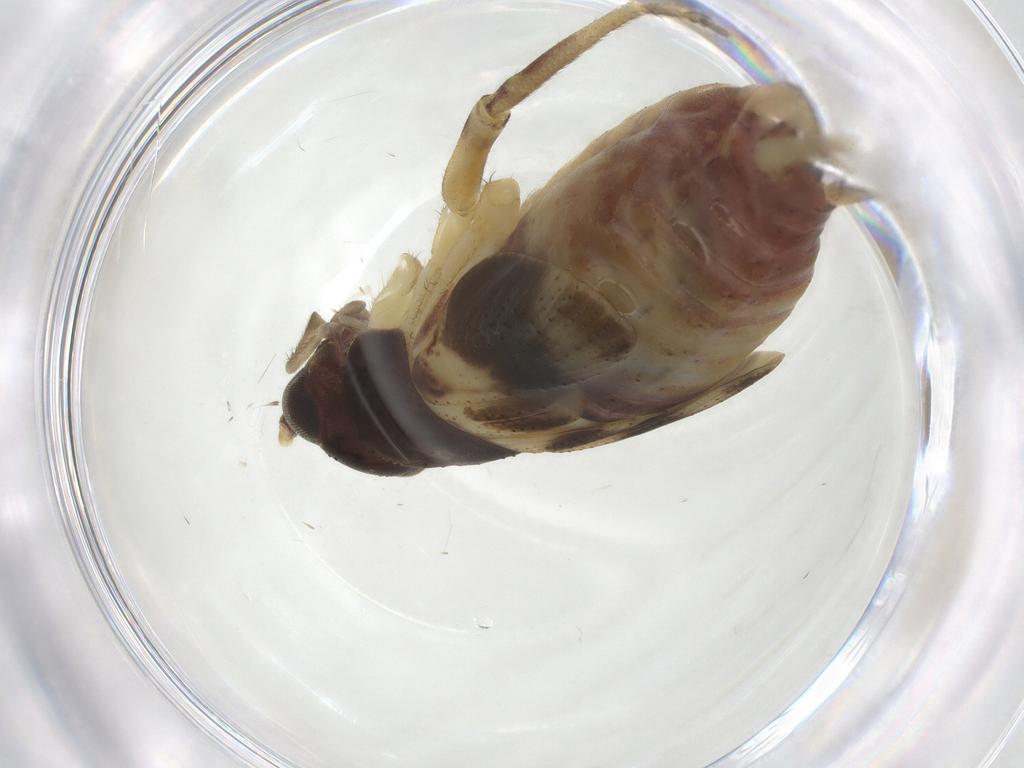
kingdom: Animalia
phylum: Arthropoda
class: Insecta
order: Orthoptera
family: Trigonidiidae
